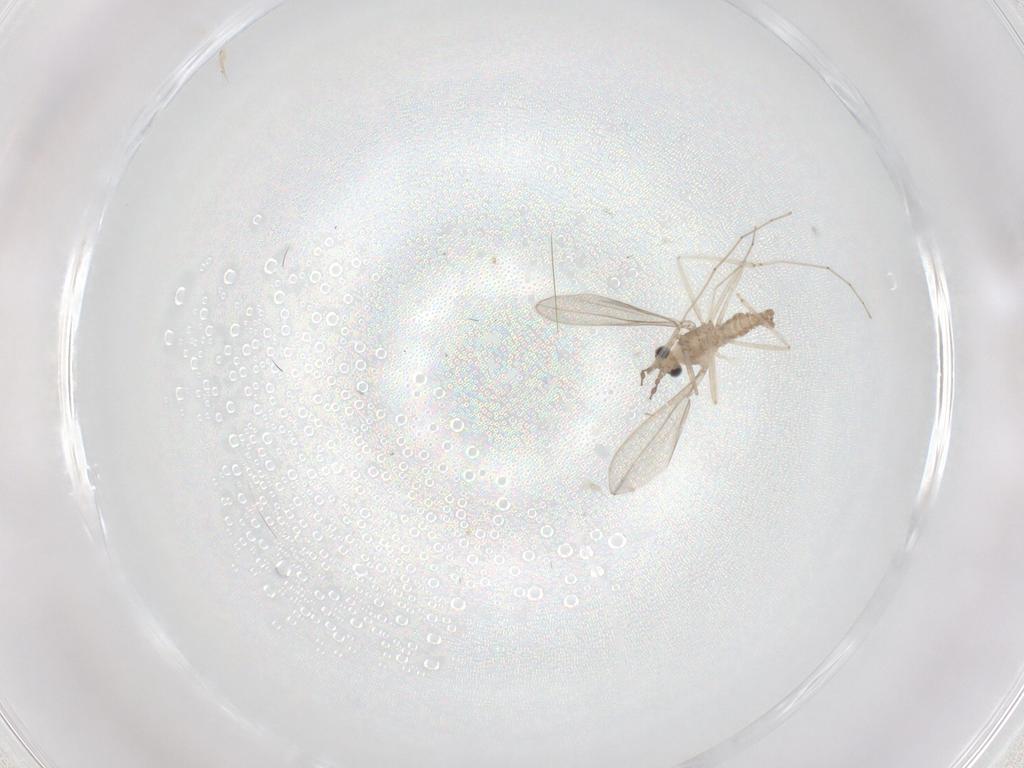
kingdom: Animalia
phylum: Arthropoda
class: Insecta
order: Diptera
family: Cecidomyiidae
